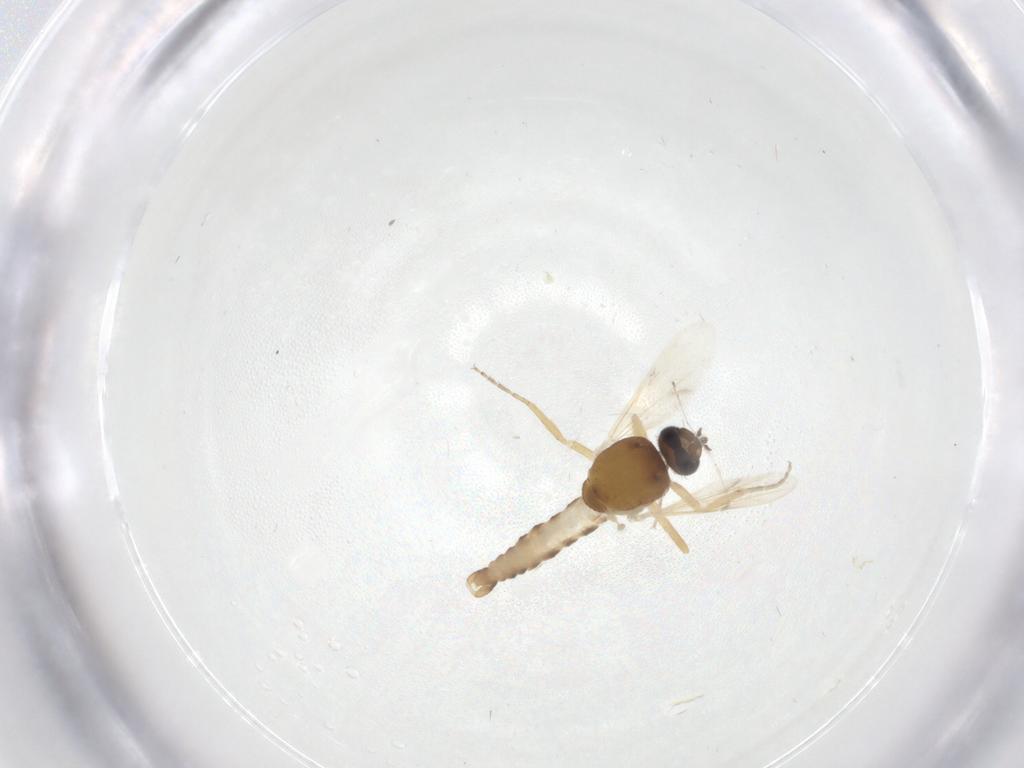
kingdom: Animalia
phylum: Arthropoda
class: Insecta
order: Diptera
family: Ceratopogonidae
